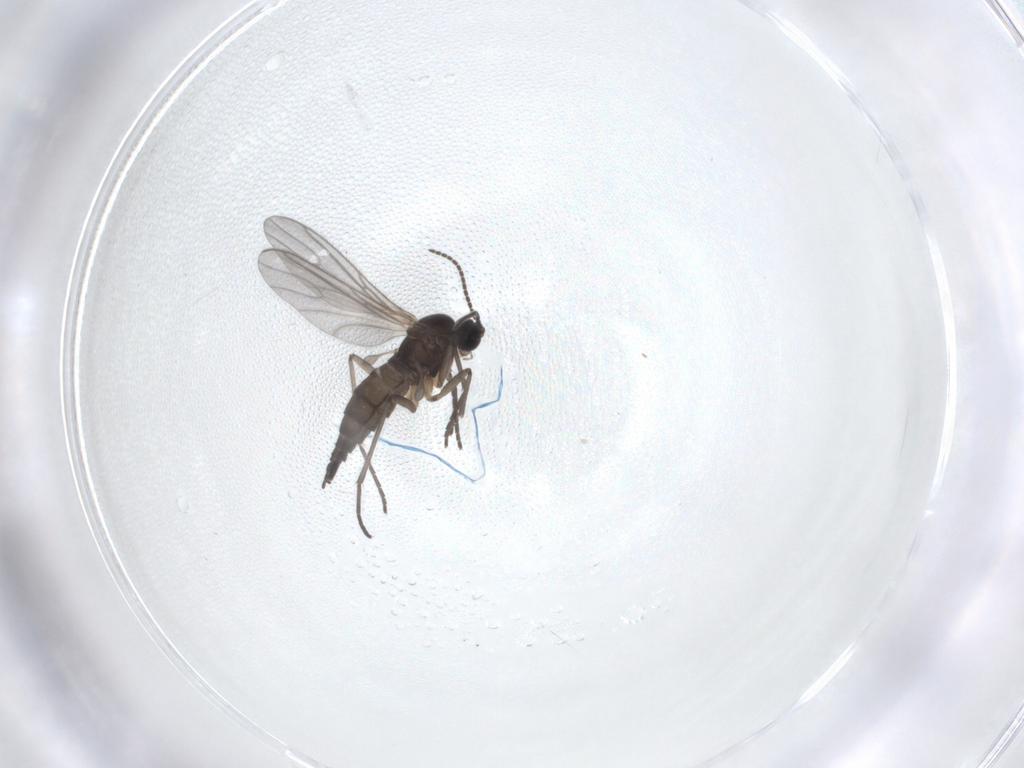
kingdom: Animalia
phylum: Arthropoda
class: Insecta
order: Diptera
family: Sciaridae
